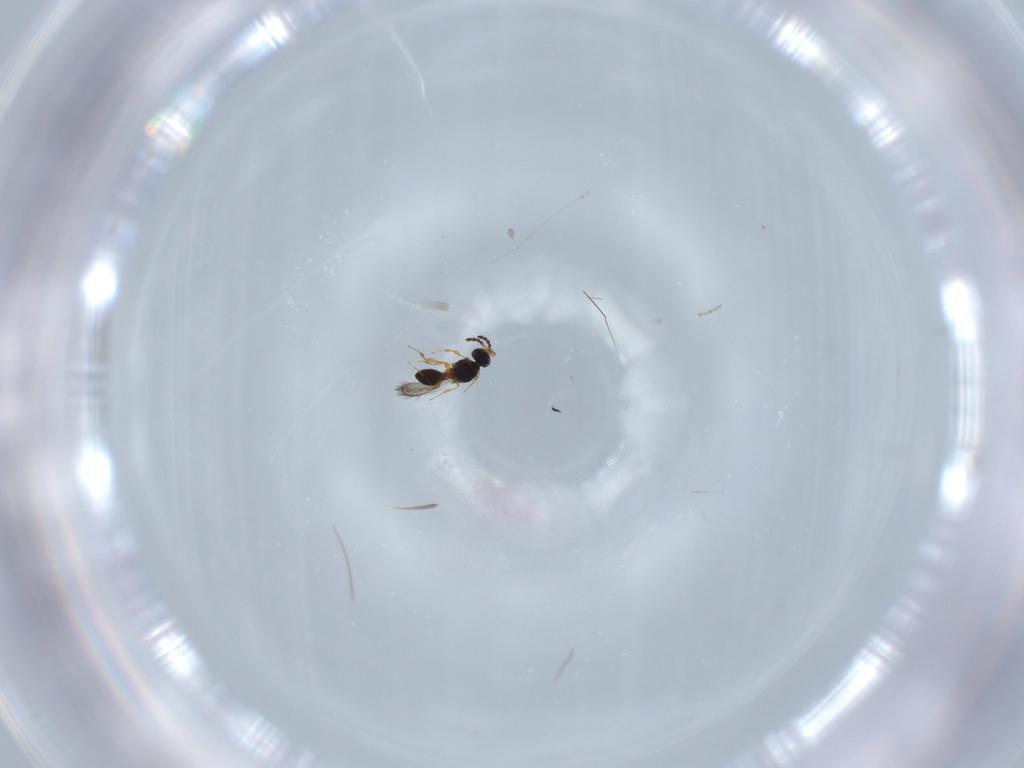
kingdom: Animalia
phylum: Arthropoda
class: Insecta
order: Hymenoptera
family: Platygastridae
